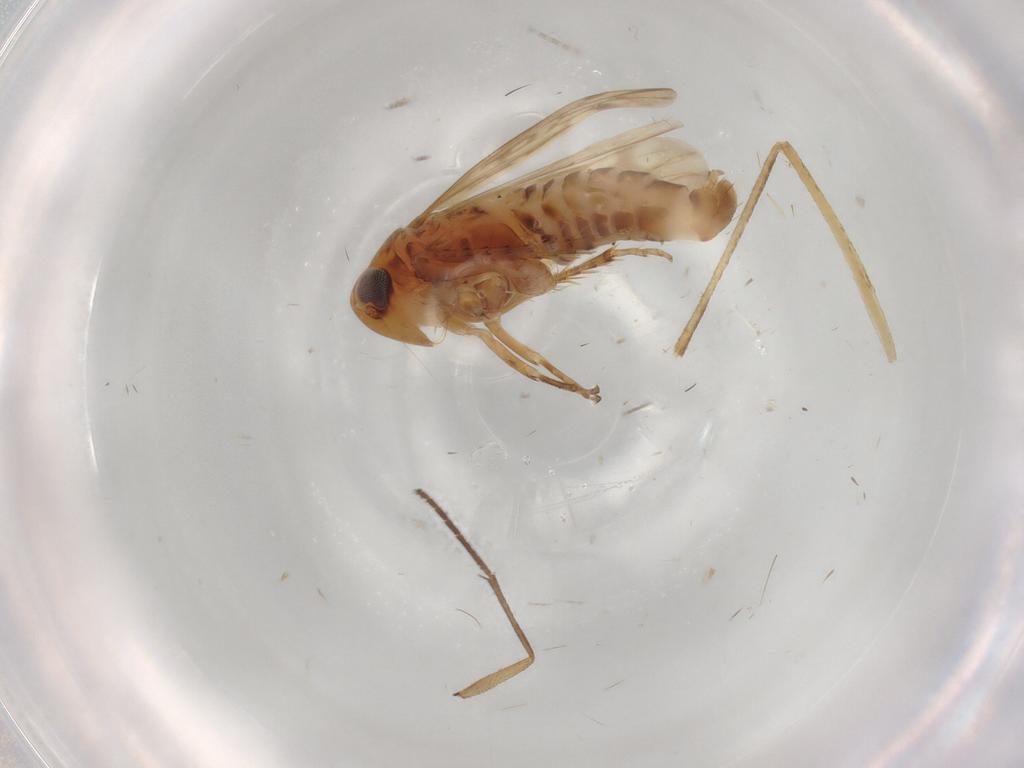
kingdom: Animalia
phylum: Arthropoda
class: Insecta
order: Hemiptera
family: Cicadellidae
